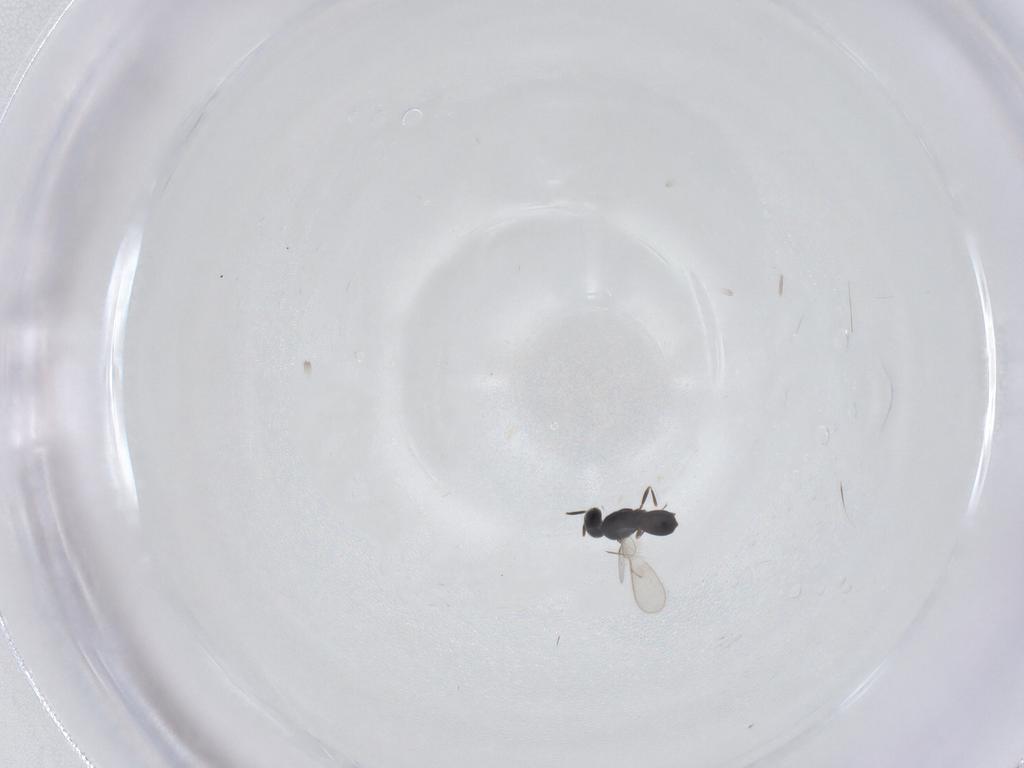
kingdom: Animalia
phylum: Arthropoda
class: Insecta
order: Hymenoptera
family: Scelionidae
